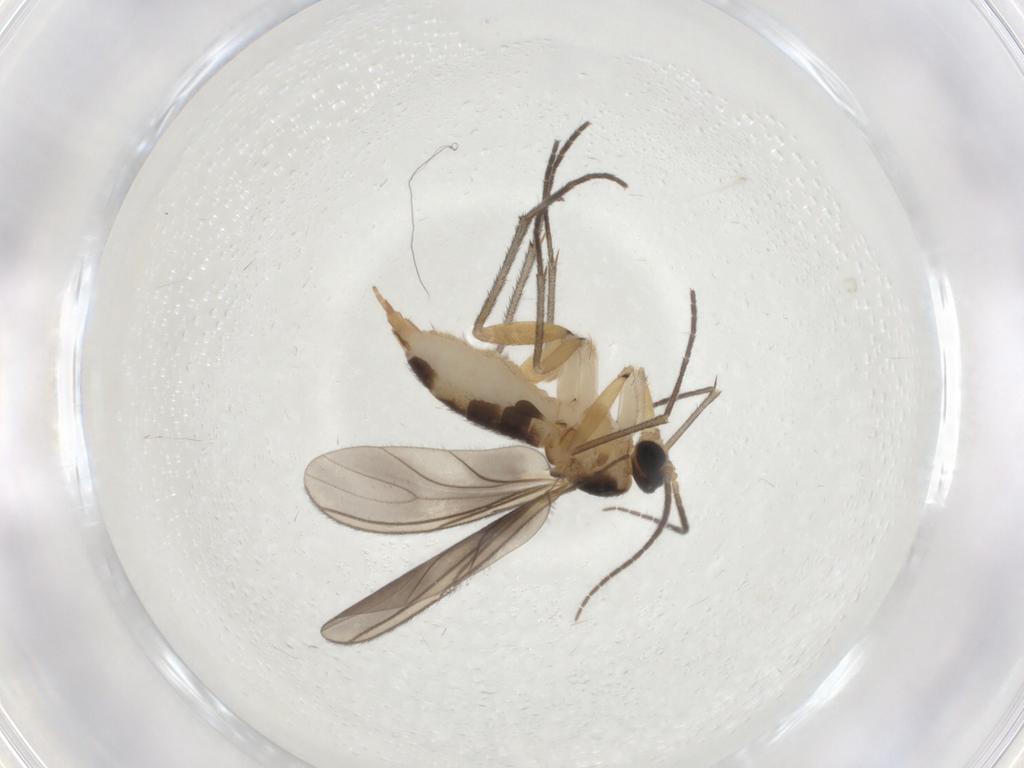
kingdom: Animalia
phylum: Arthropoda
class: Insecta
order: Diptera
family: Sciaridae
